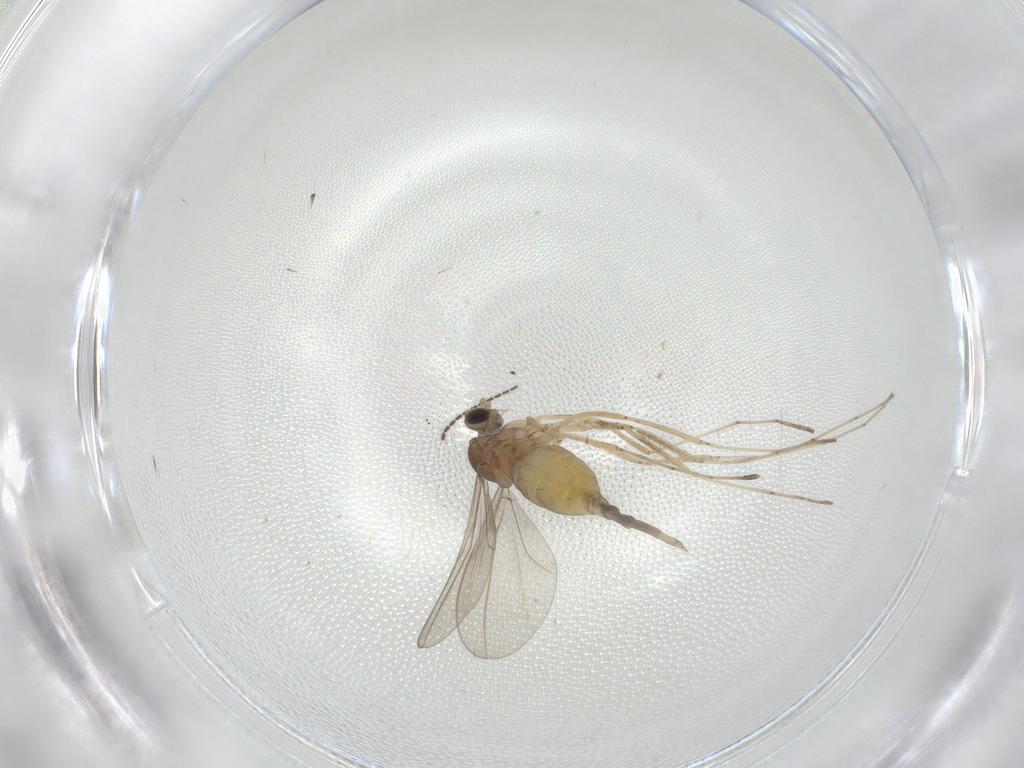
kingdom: Animalia
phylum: Arthropoda
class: Insecta
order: Diptera
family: Cecidomyiidae
